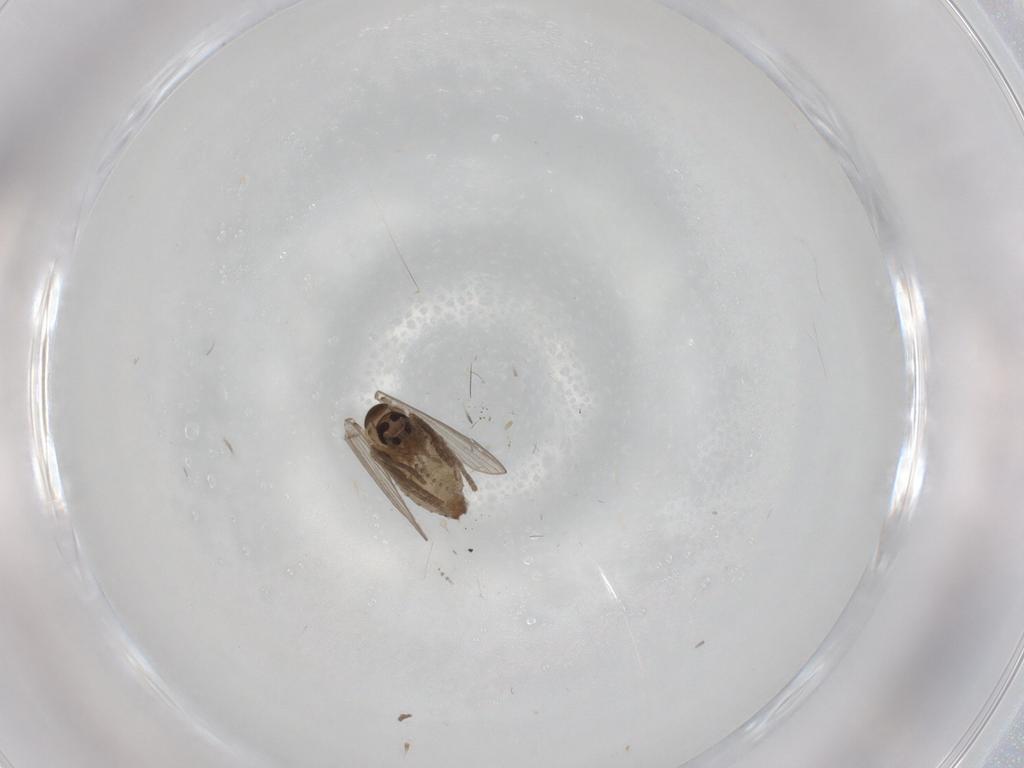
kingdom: Animalia
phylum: Arthropoda
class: Insecta
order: Diptera
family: Psychodidae
